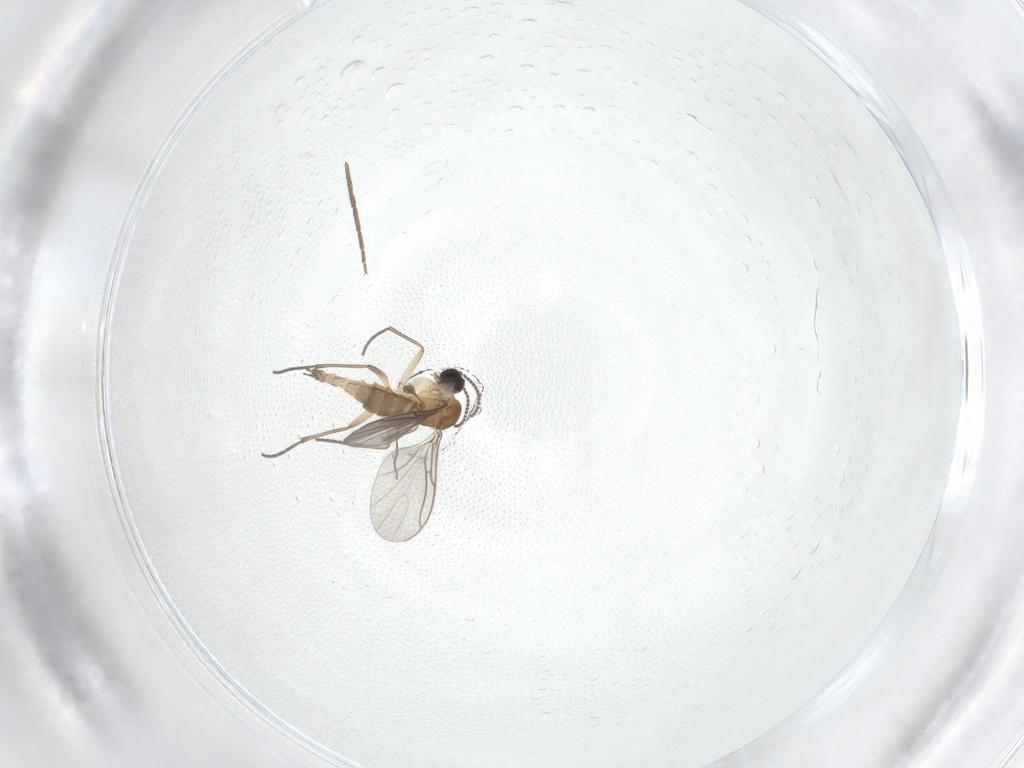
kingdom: Animalia
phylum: Arthropoda
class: Insecta
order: Diptera
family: Sciaridae
